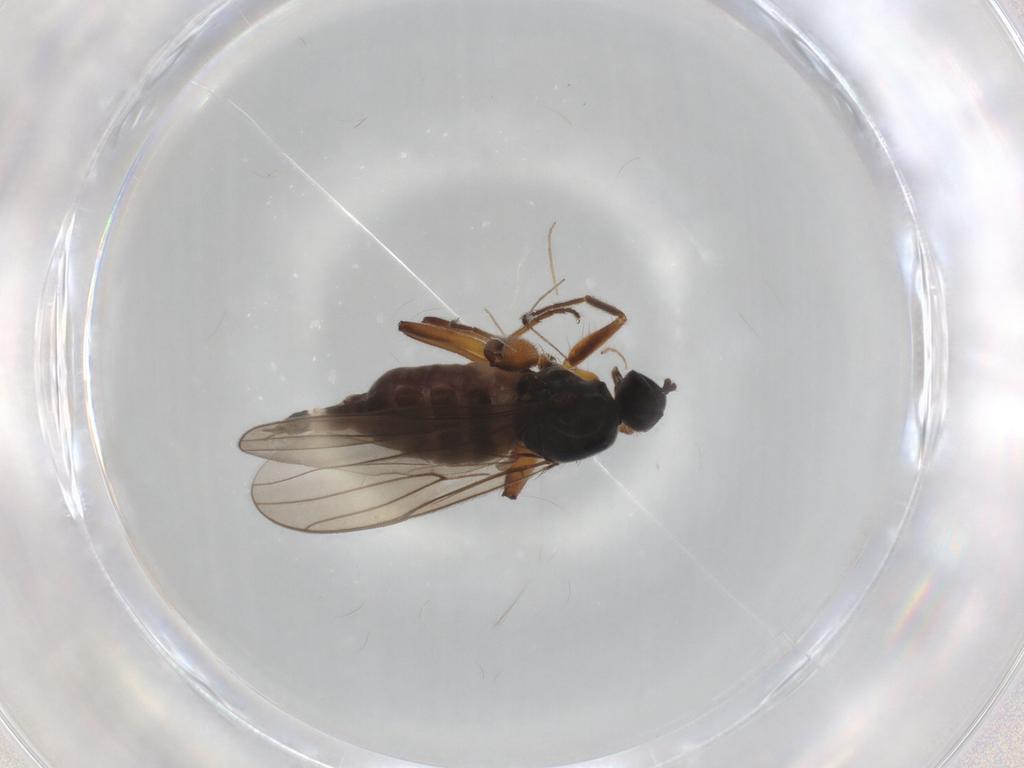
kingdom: Animalia
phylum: Arthropoda
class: Insecta
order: Diptera
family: Hybotidae
